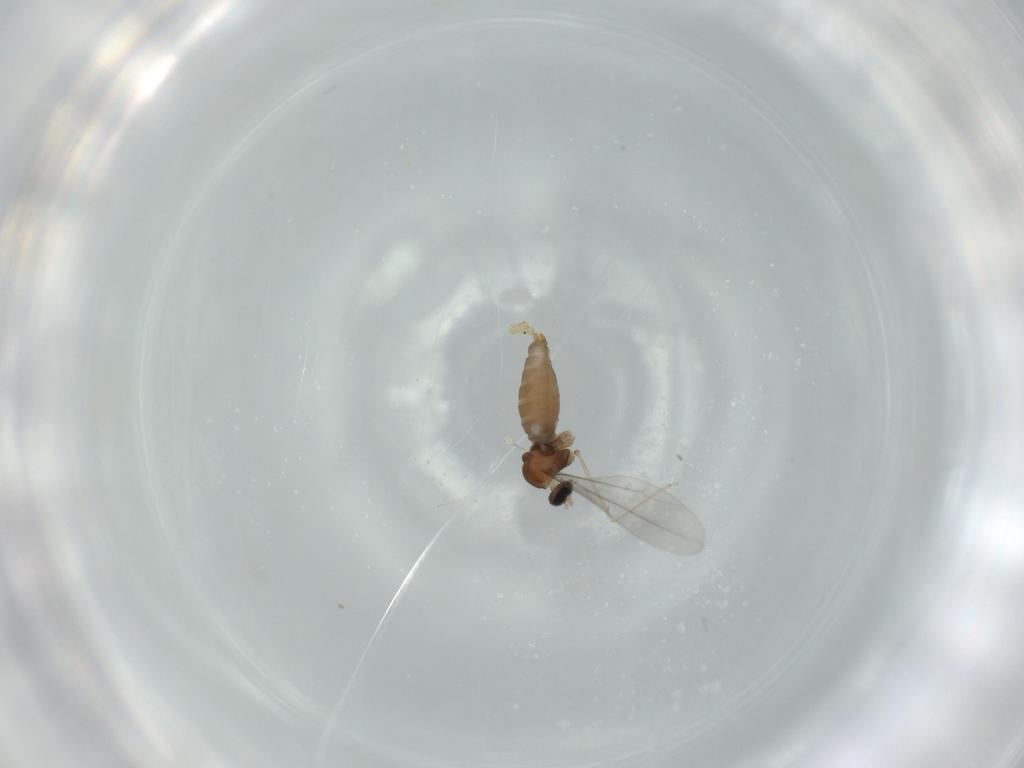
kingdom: Animalia
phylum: Arthropoda
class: Insecta
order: Diptera
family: Cecidomyiidae
